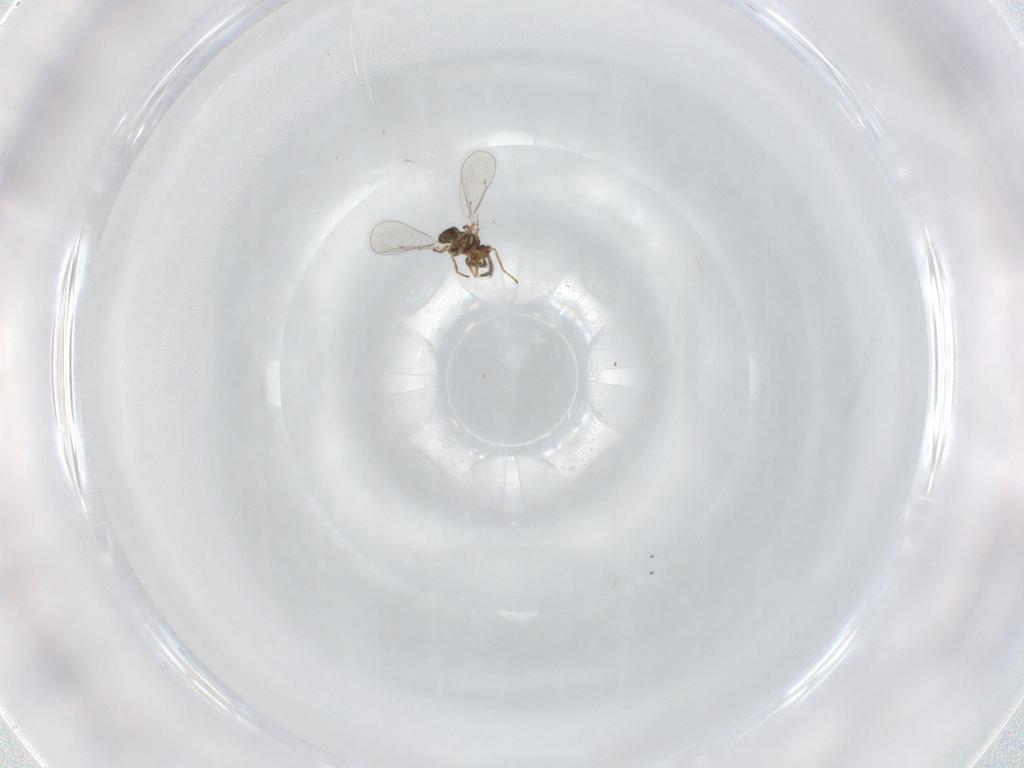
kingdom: Animalia
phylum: Arthropoda
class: Insecta
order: Hymenoptera
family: Eulophidae
